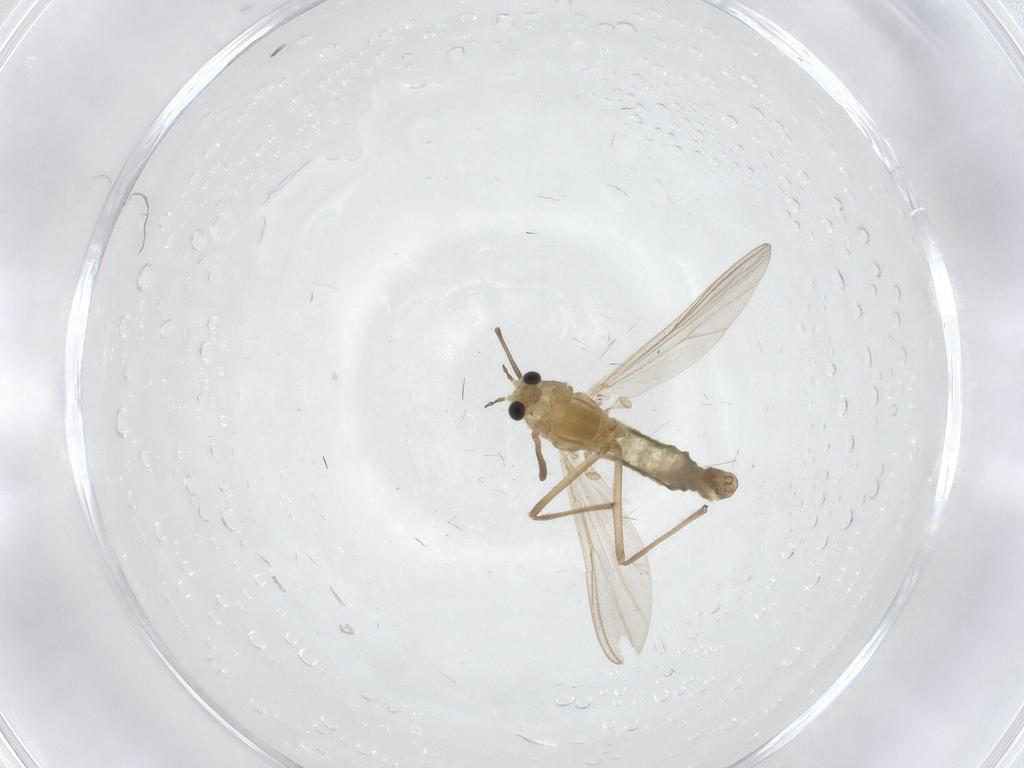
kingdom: Animalia
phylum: Arthropoda
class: Insecta
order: Diptera
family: Chironomidae
